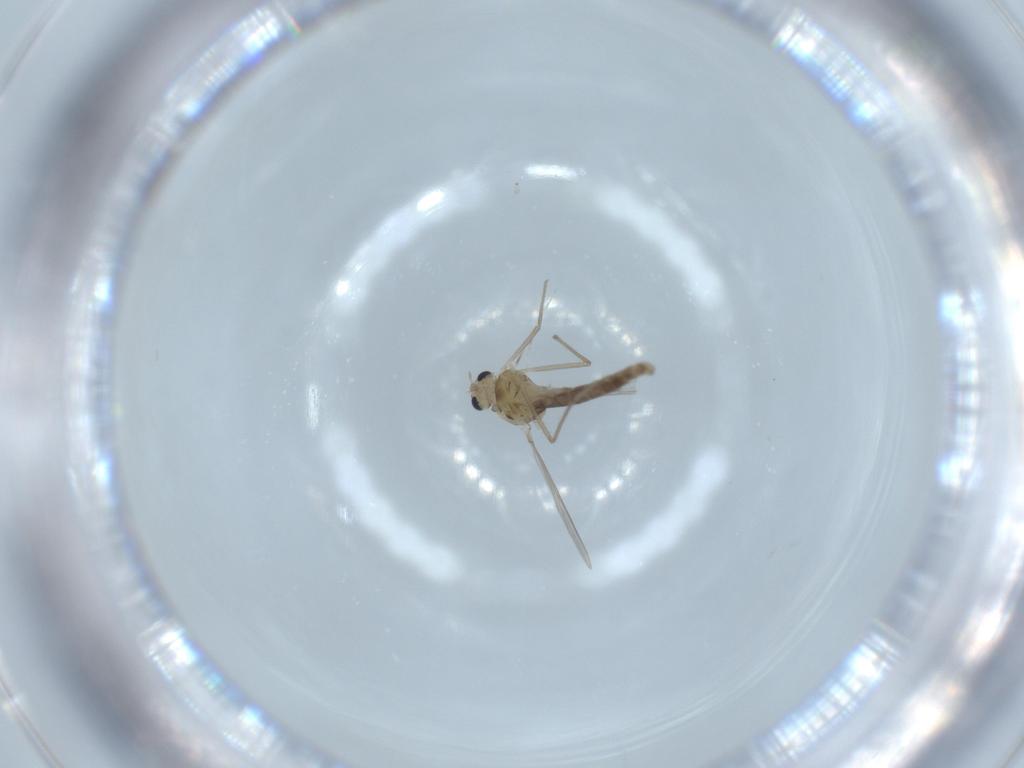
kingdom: Animalia
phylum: Arthropoda
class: Insecta
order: Diptera
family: Chironomidae
